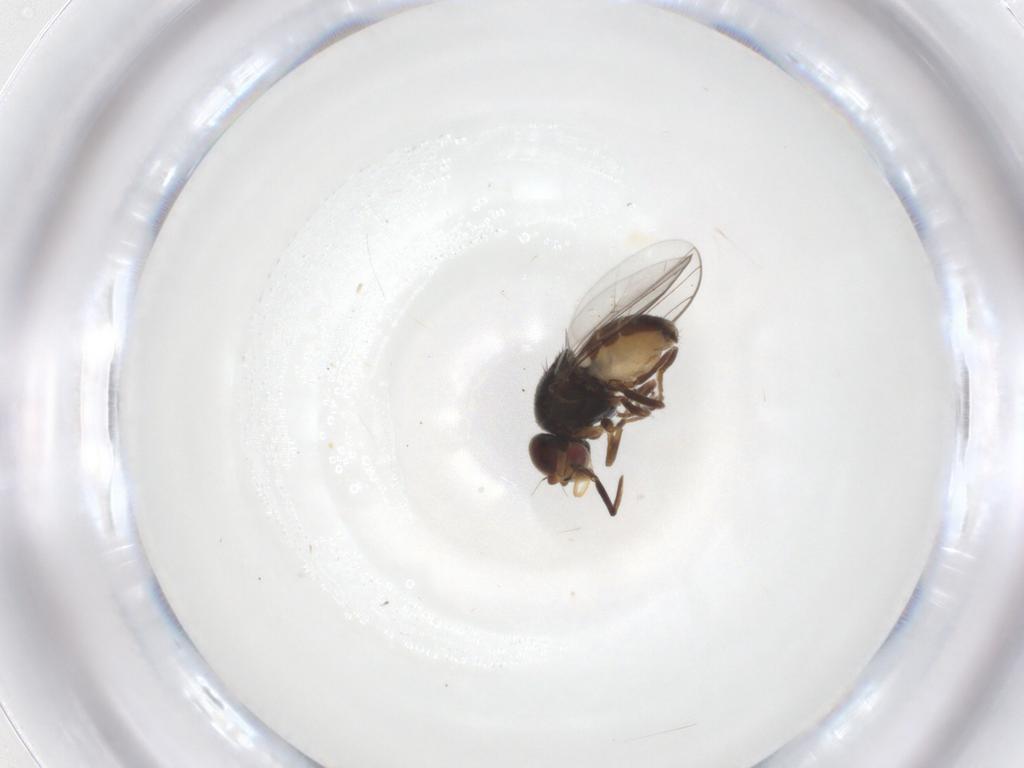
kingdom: Animalia
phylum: Arthropoda
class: Insecta
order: Diptera
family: Chloropidae
